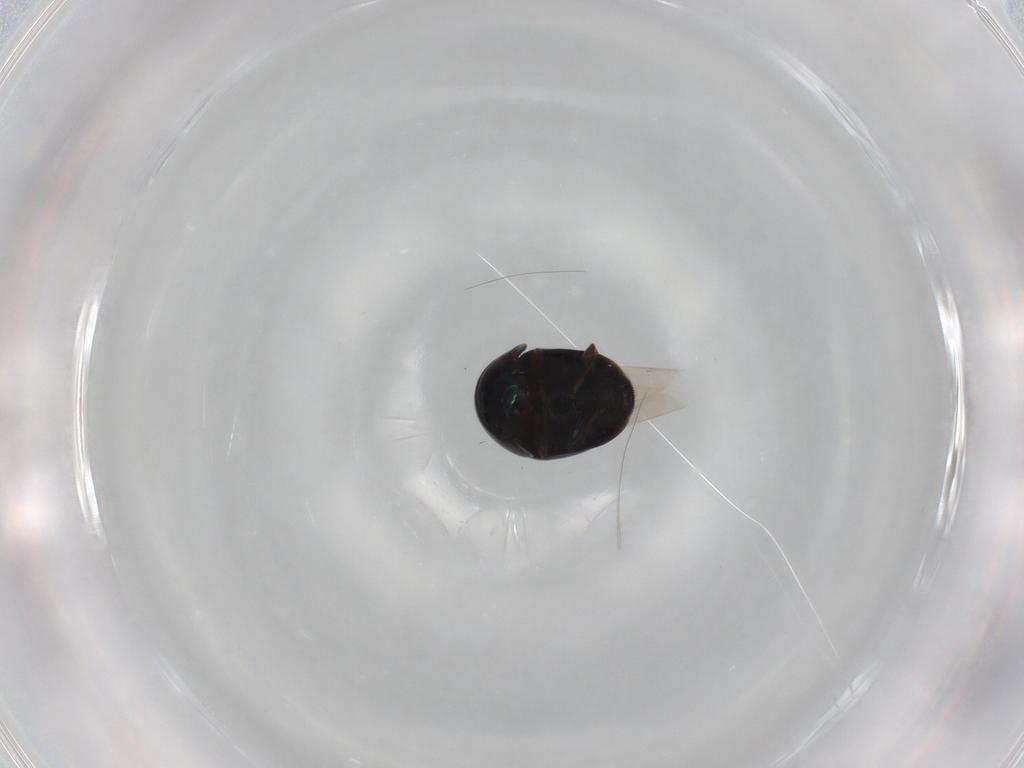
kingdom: Animalia
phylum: Arthropoda
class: Insecta
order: Coleoptera
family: Cybocephalidae
